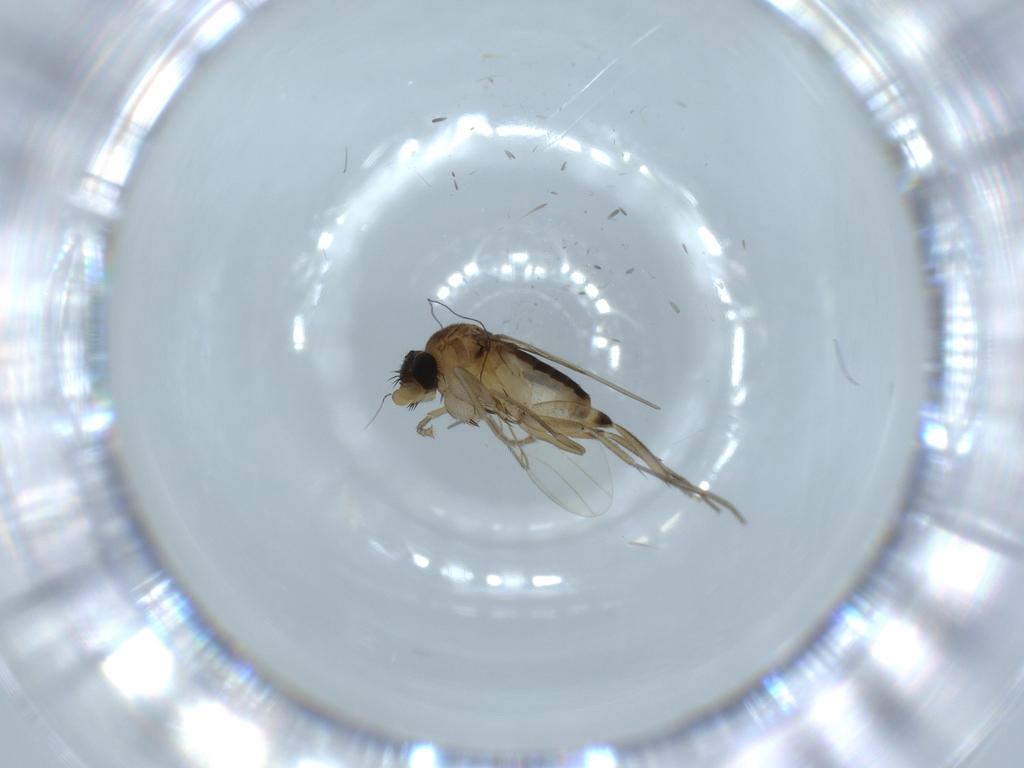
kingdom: Animalia
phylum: Arthropoda
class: Insecta
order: Diptera
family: Phoridae
